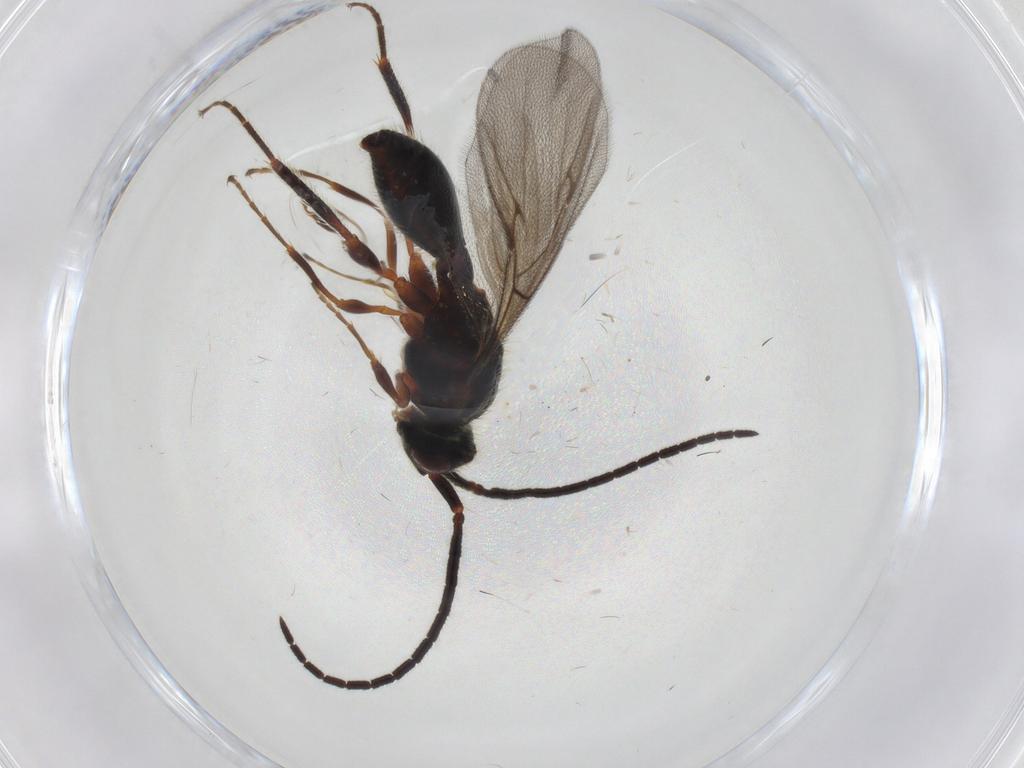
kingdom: Animalia
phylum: Arthropoda
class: Insecta
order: Hymenoptera
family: Diapriidae
